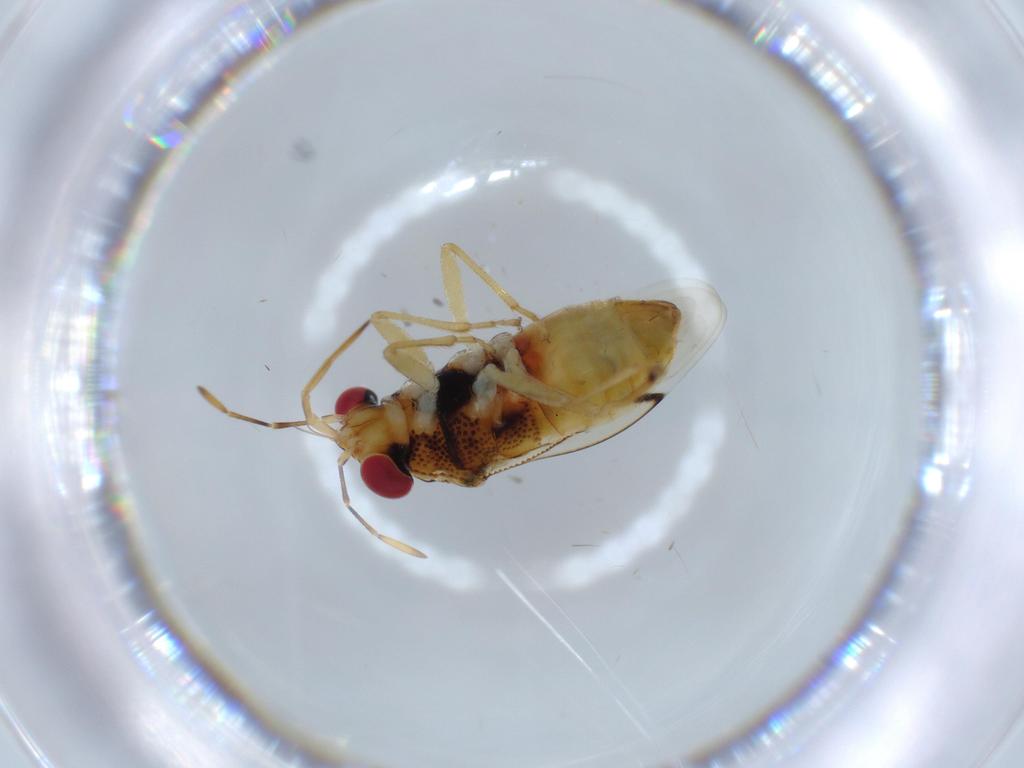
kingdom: Animalia
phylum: Arthropoda
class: Insecta
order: Hemiptera
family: Geocoridae
